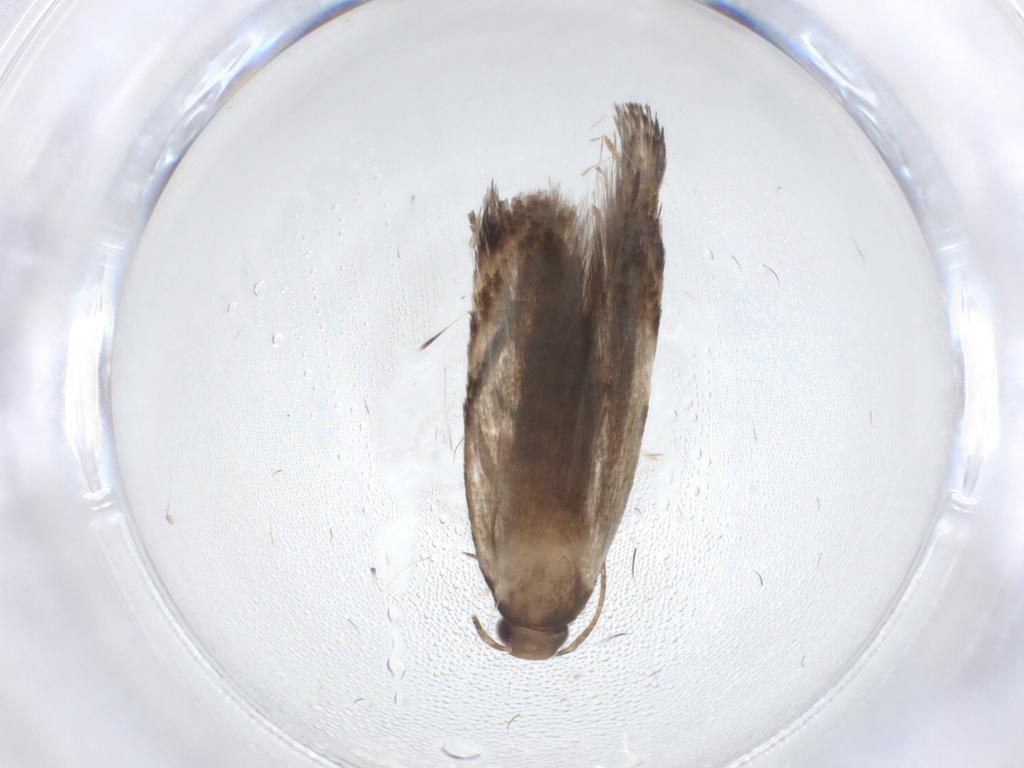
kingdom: Animalia
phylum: Arthropoda
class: Insecta
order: Lepidoptera
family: Gelechiidae
